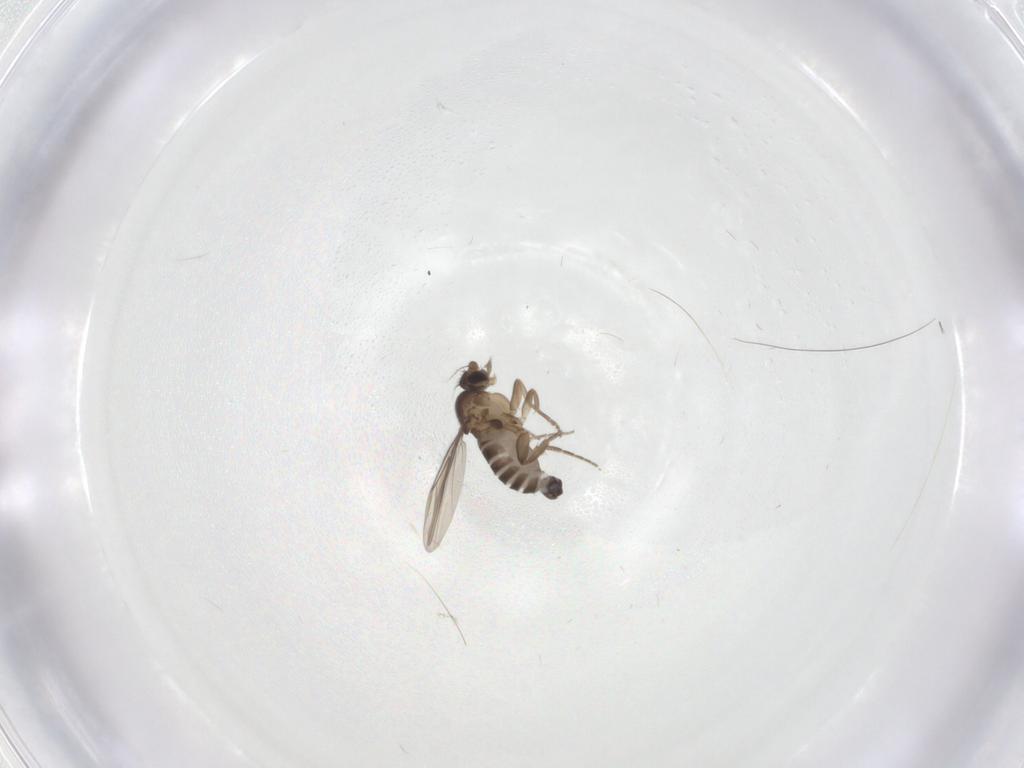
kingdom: Animalia
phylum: Arthropoda
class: Insecta
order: Diptera
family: Phoridae
